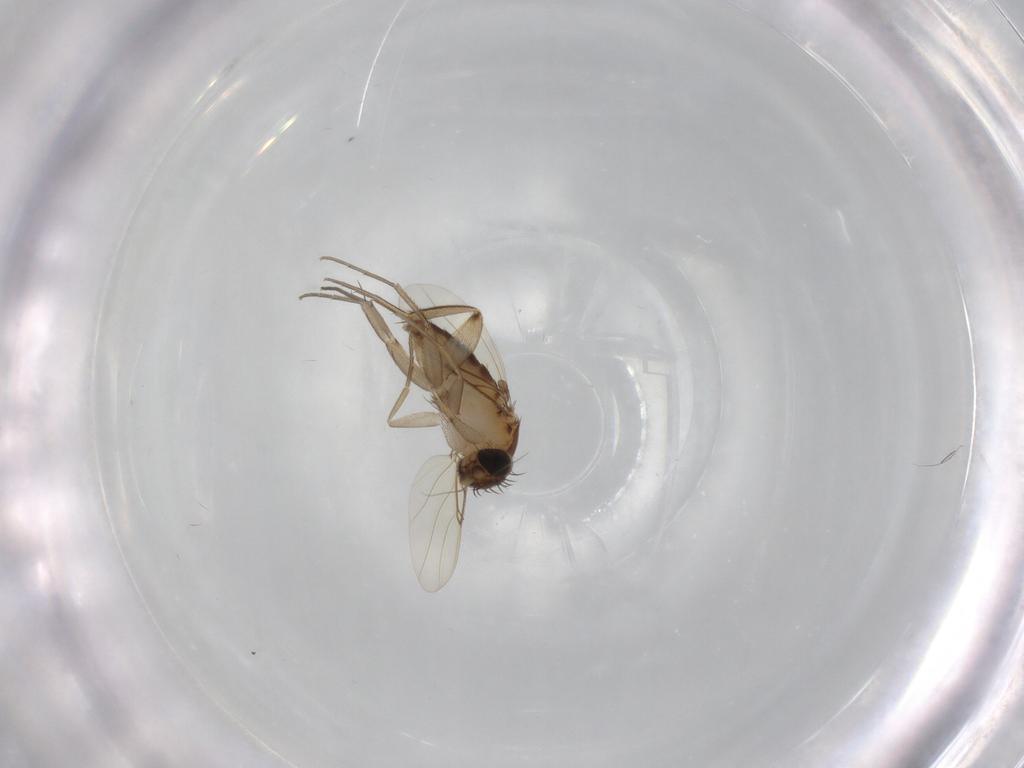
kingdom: Animalia
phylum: Arthropoda
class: Insecta
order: Diptera
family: Phoridae
